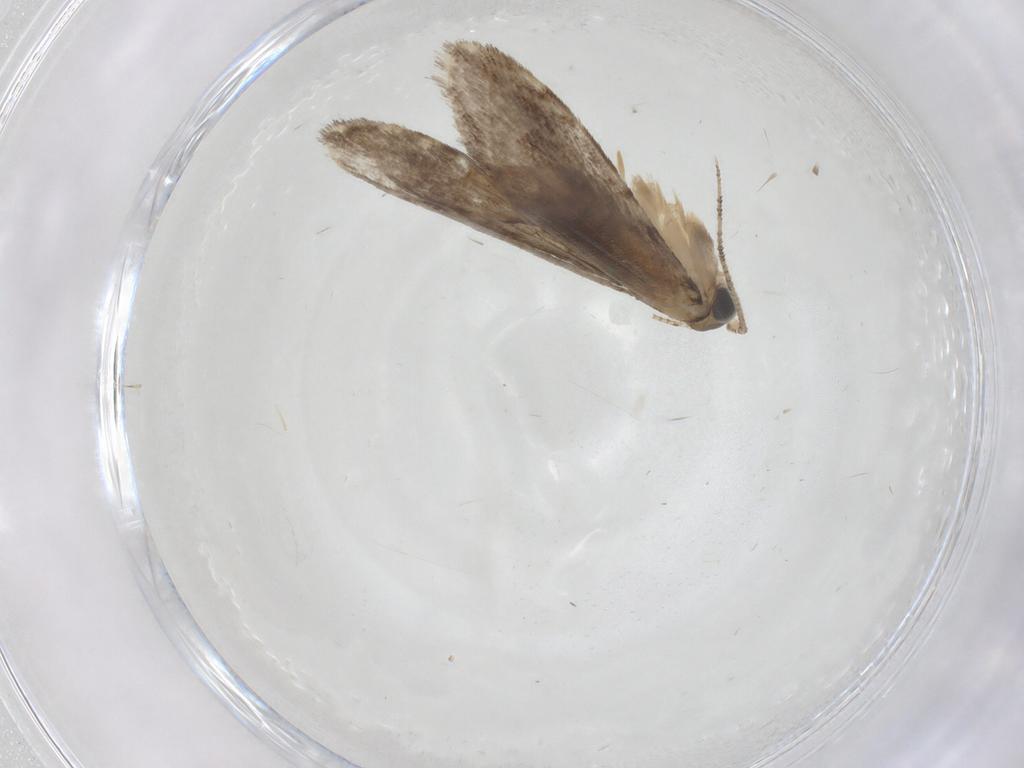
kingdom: Animalia
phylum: Arthropoda
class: Insecta
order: Lepidoptera
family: Tineidae
